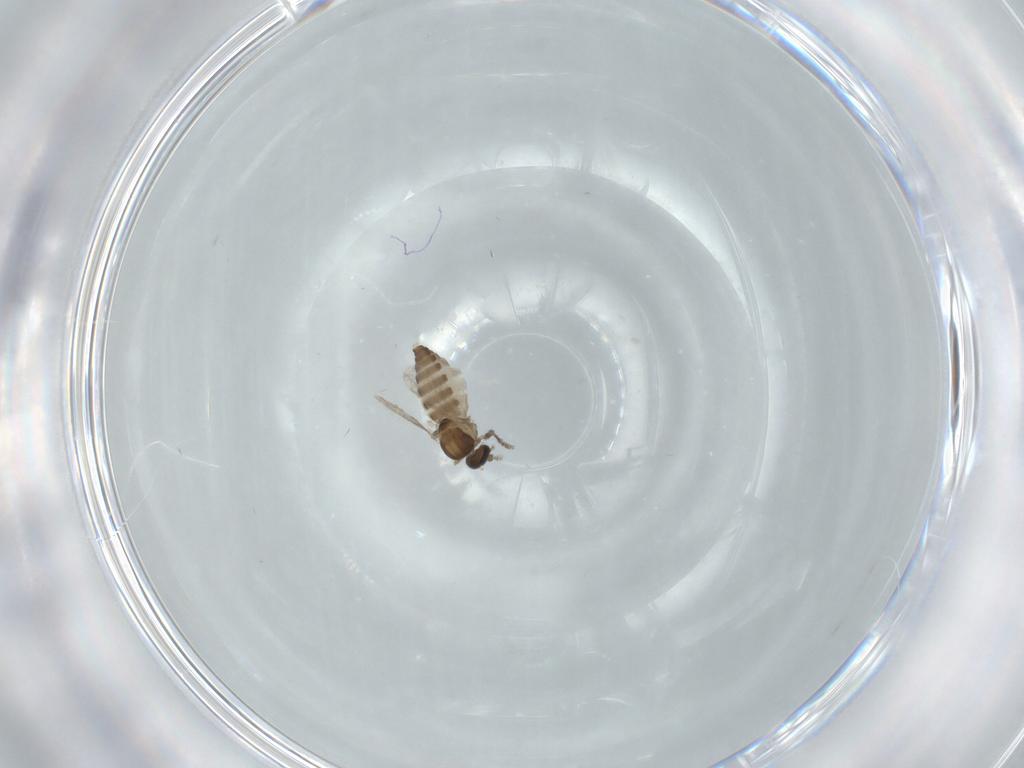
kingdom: Animalia
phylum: Arthropoda
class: Insecta
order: Diptera
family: Ceratopogonidae
